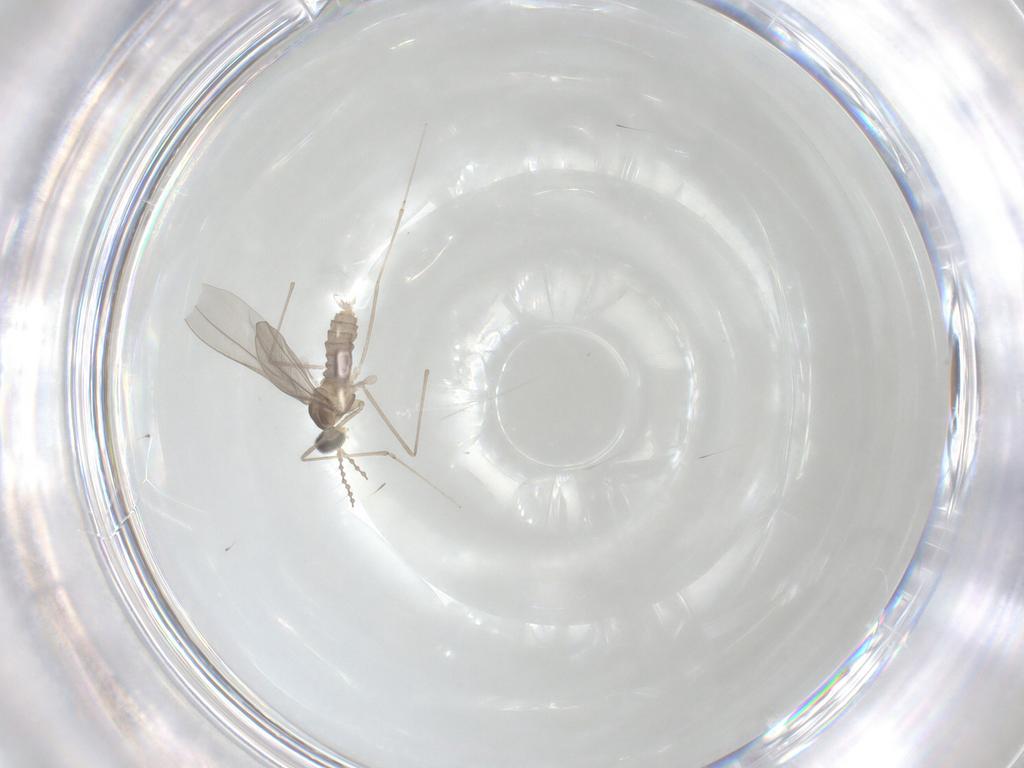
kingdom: Animalia
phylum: Arthropoda
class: Insecta
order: Diptera
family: Cecidomyiidae
